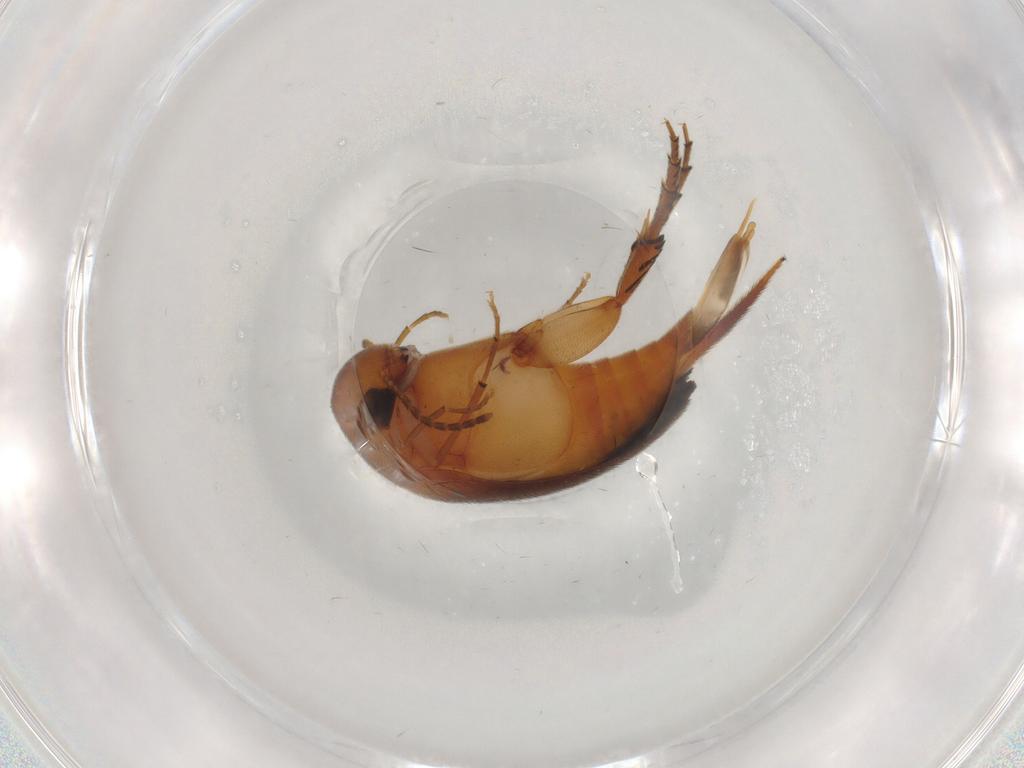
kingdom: Animalia
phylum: Arthropoda
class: Insecta
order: Coleoptera
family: Mordellidae
